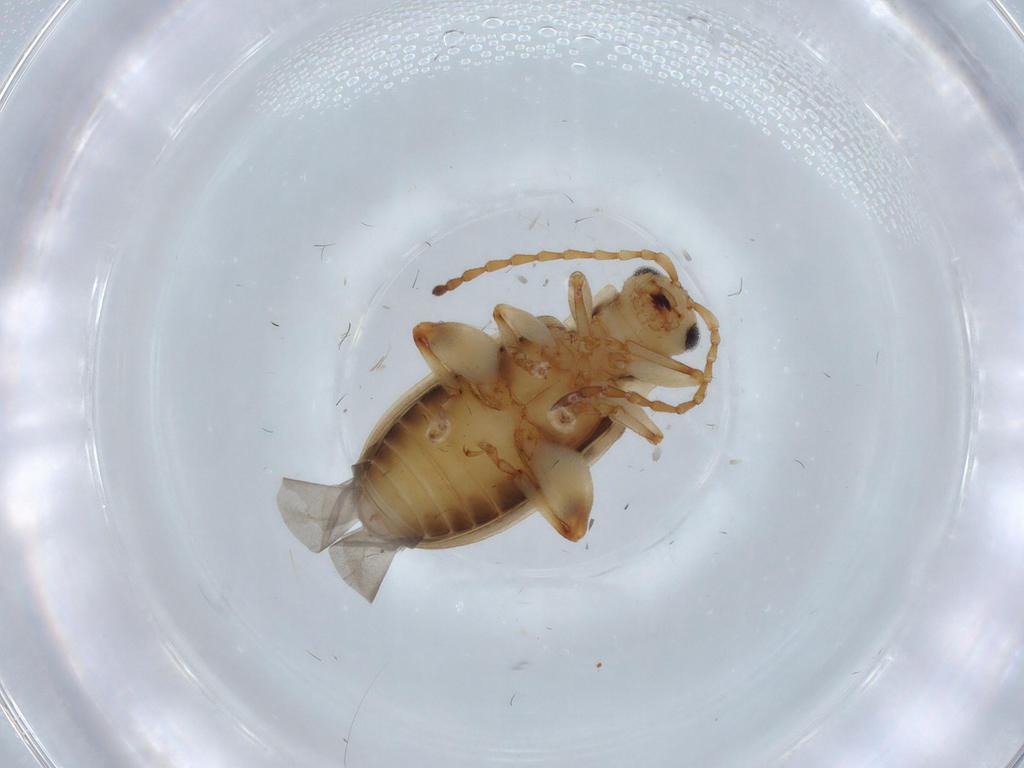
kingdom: Animalia
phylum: Arthropoda
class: Insecta
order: Coleoptera
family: Chrysomelidae
